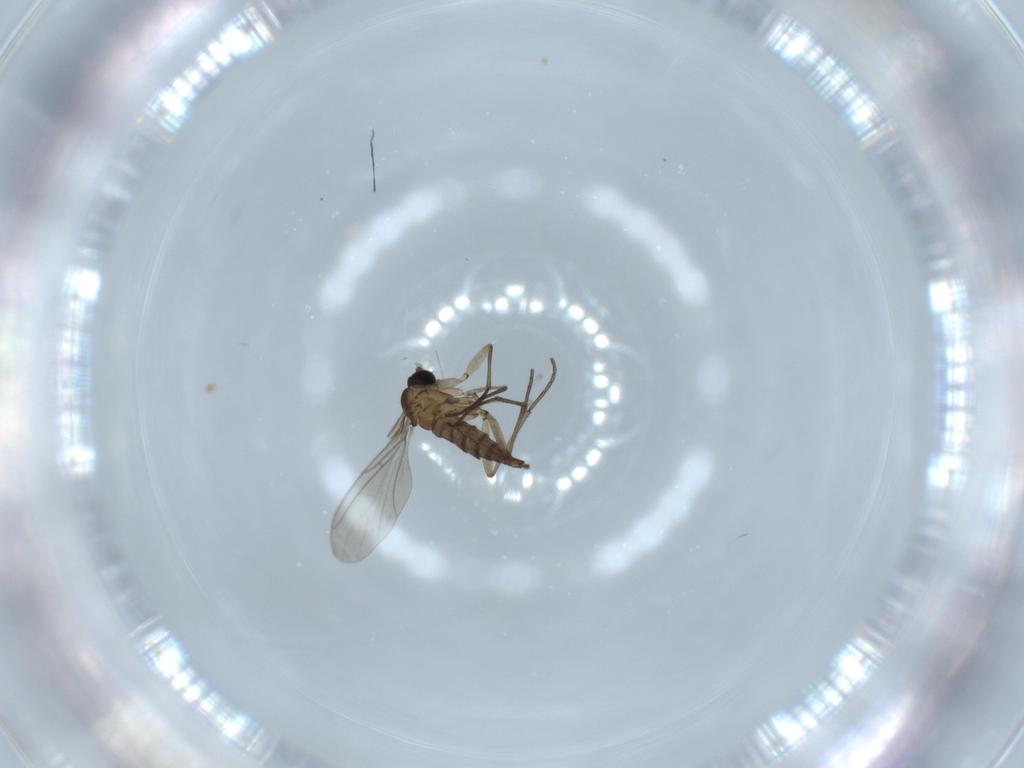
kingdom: Animalia
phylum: Arthropoda
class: Insecta
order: Diptera
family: Sciaridae
